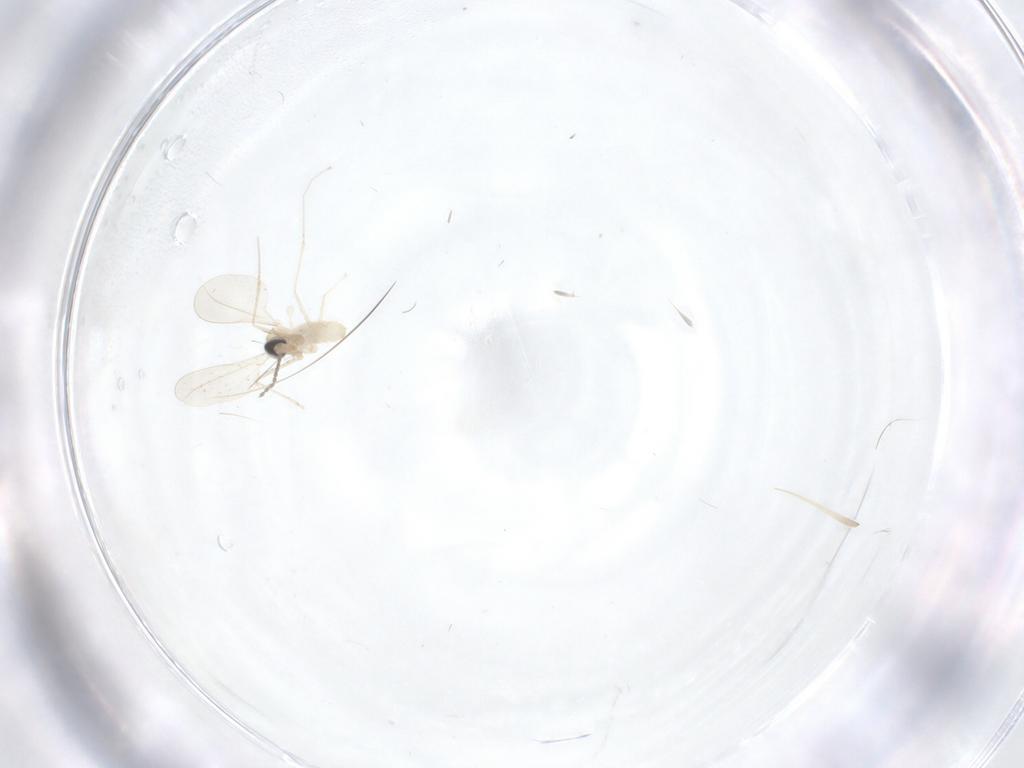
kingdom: Animalia
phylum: Arthropoda
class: Insecta
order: Diptera
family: Cecidomyiidae
